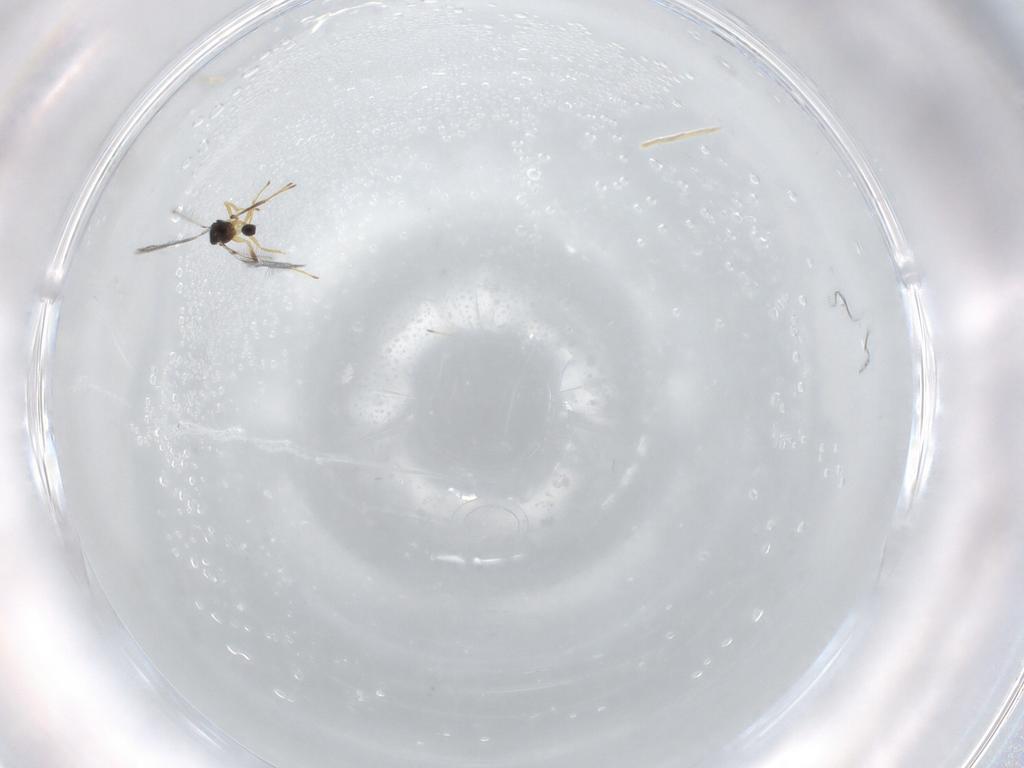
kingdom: Animalia
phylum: Arthropoda
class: Insecta
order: Hymenoptera
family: Mymaridae
